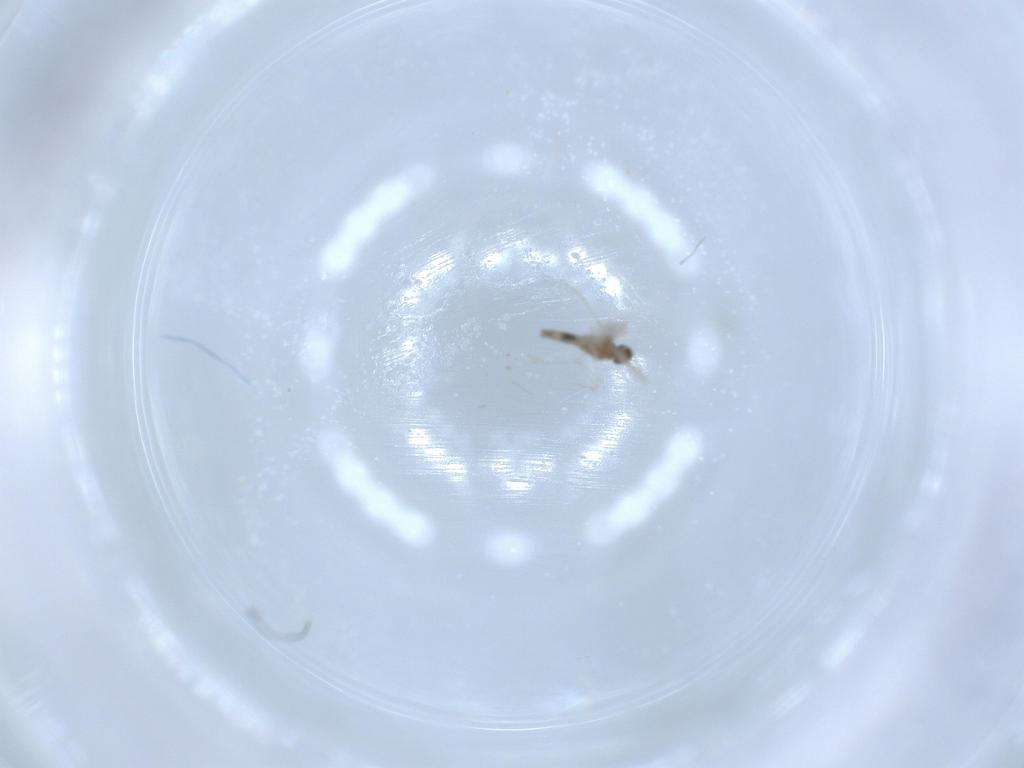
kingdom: Animalia
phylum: Arthropoda
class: Insecta
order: Diptera
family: Cecidomyiidae
